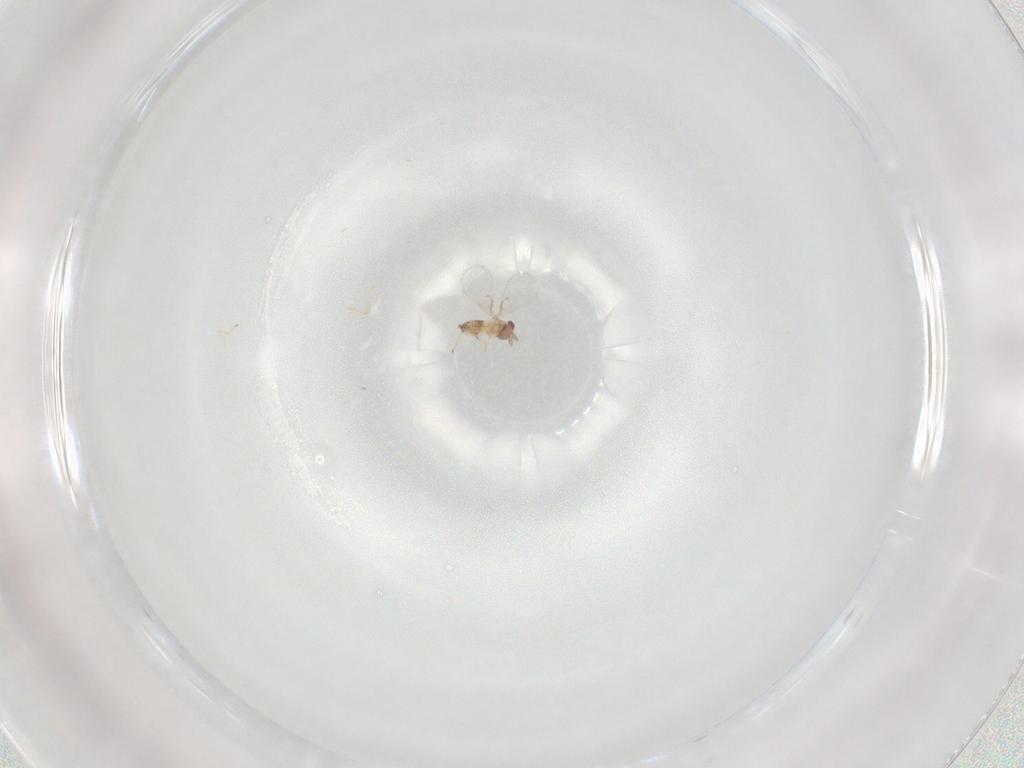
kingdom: Animalia
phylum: Arthropoda
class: Insecta
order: Hymenoptera
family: Trichogrammatidae
